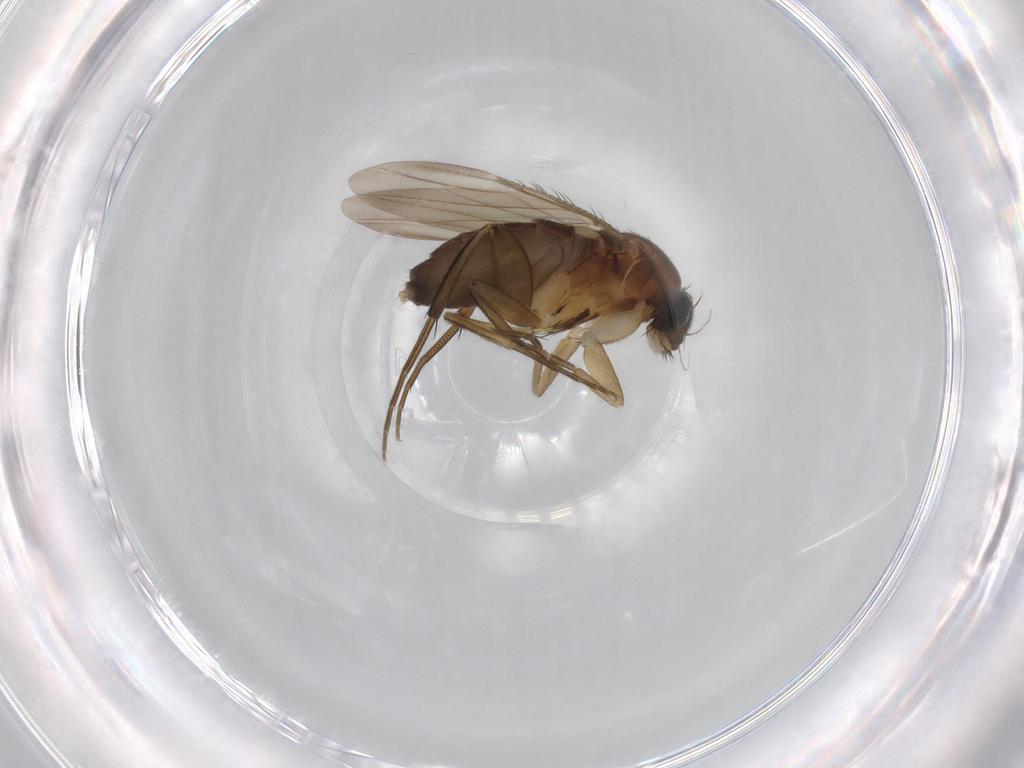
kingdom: Animalia
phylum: Arthropoda
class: Insecta
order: Diptera
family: Phoridae
